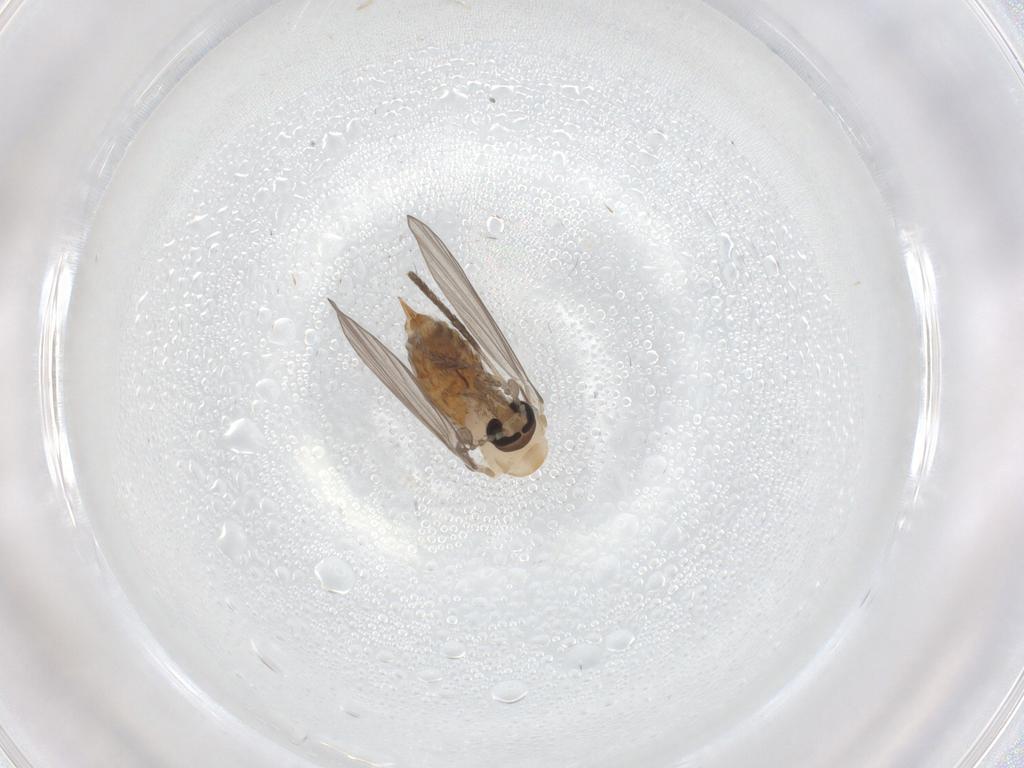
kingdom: Animalia
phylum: Arthropoda
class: Insecta
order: Diptera
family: Psychodidae
